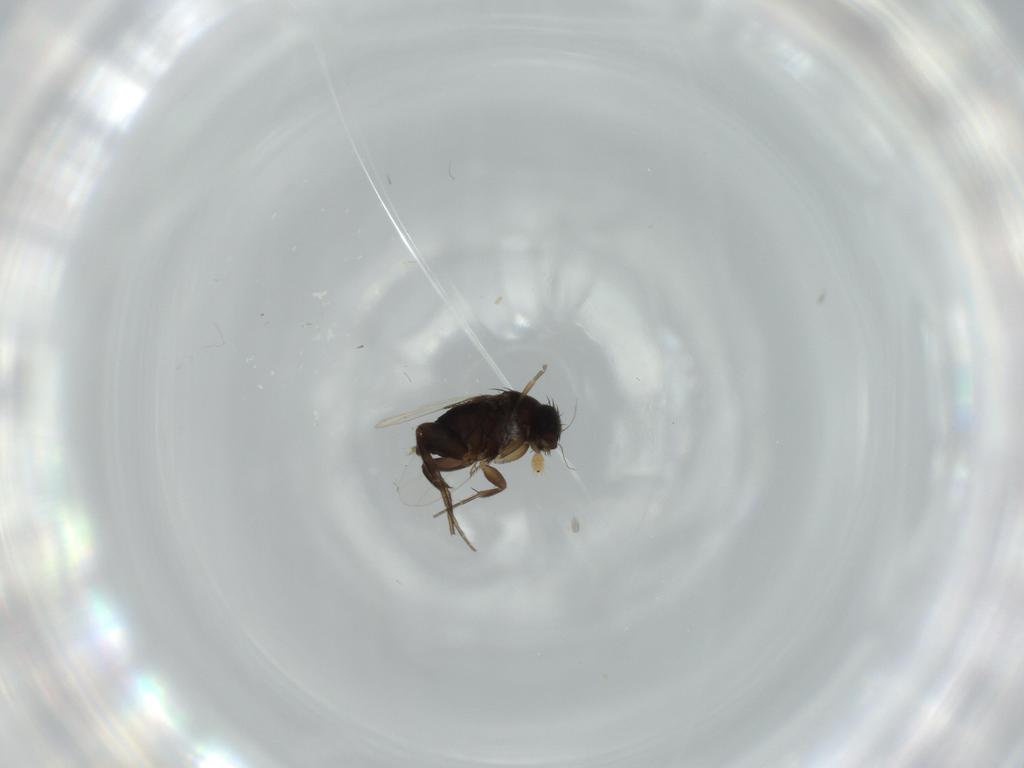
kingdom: Animalia
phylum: Arthropoda
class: Insecta
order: Diptera
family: Phoridae
